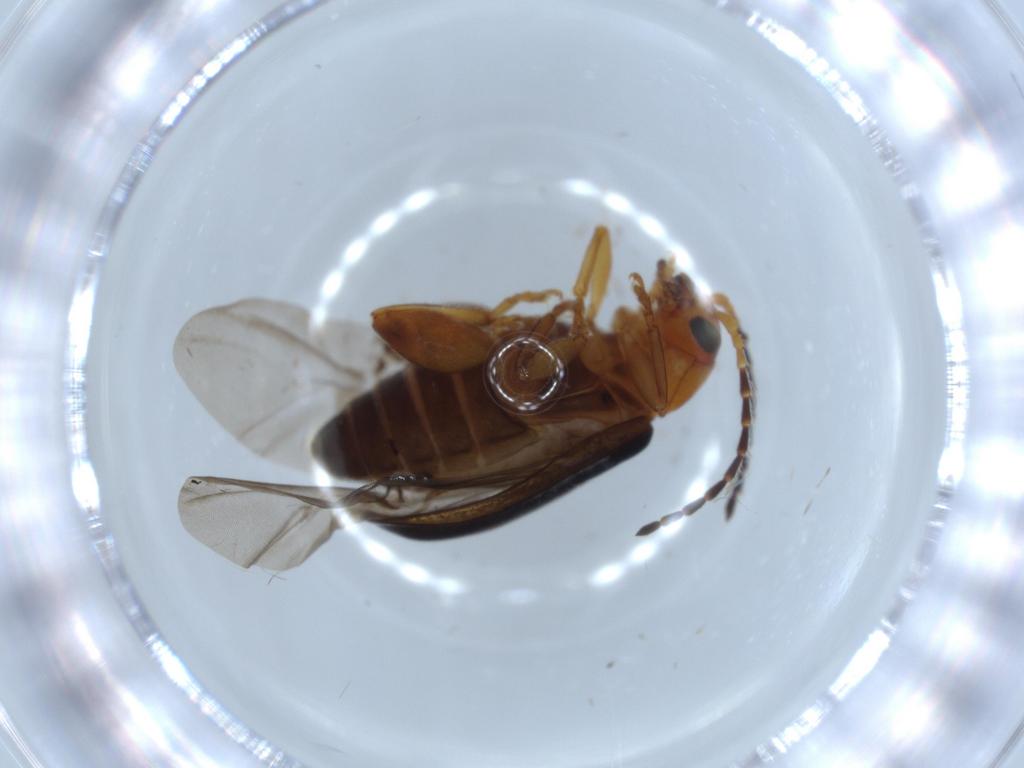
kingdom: Animalia
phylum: Arthropoda
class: Insecta
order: Coleoptera
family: Chrysomelidae
